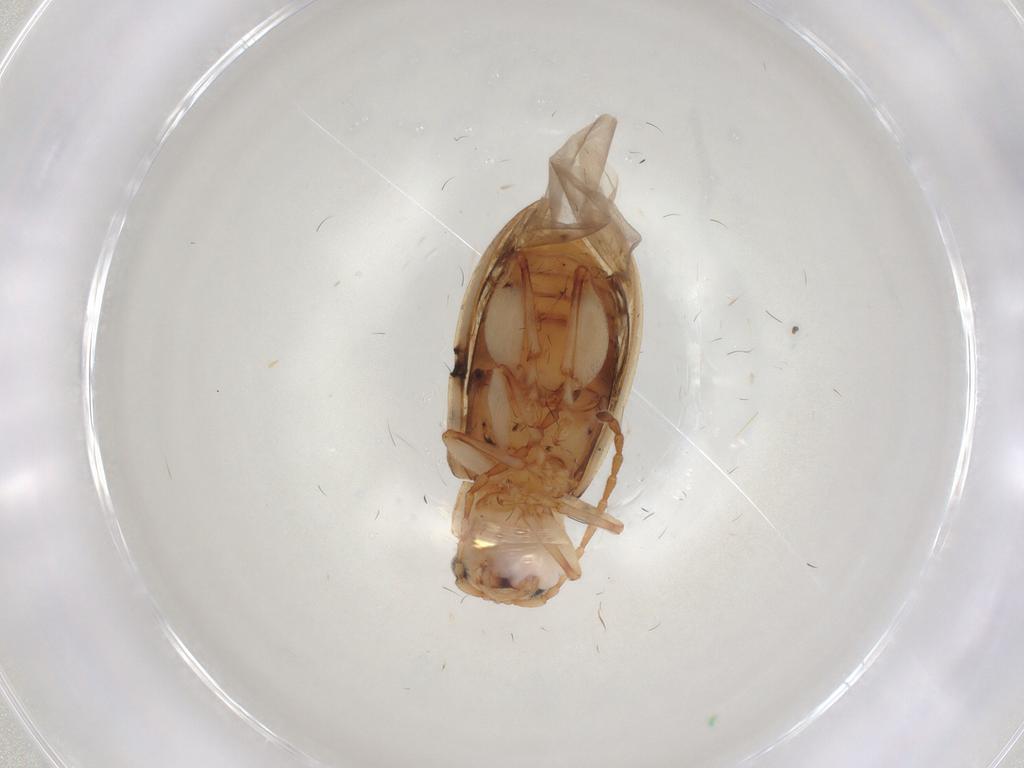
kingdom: Animalia
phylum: Arthropoda
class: Insecta
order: Coleoptera
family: Chrysomelidae
